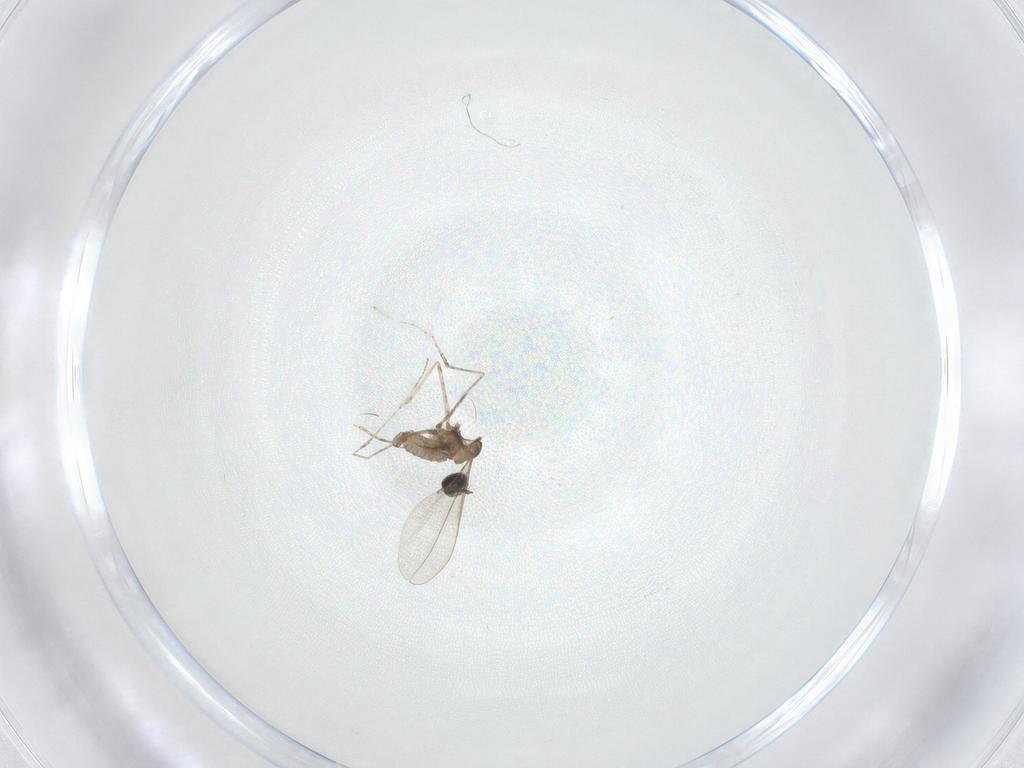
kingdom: Animalia
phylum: Arthropoda
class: Insecta
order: Diptera
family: Cecidomyiidae
